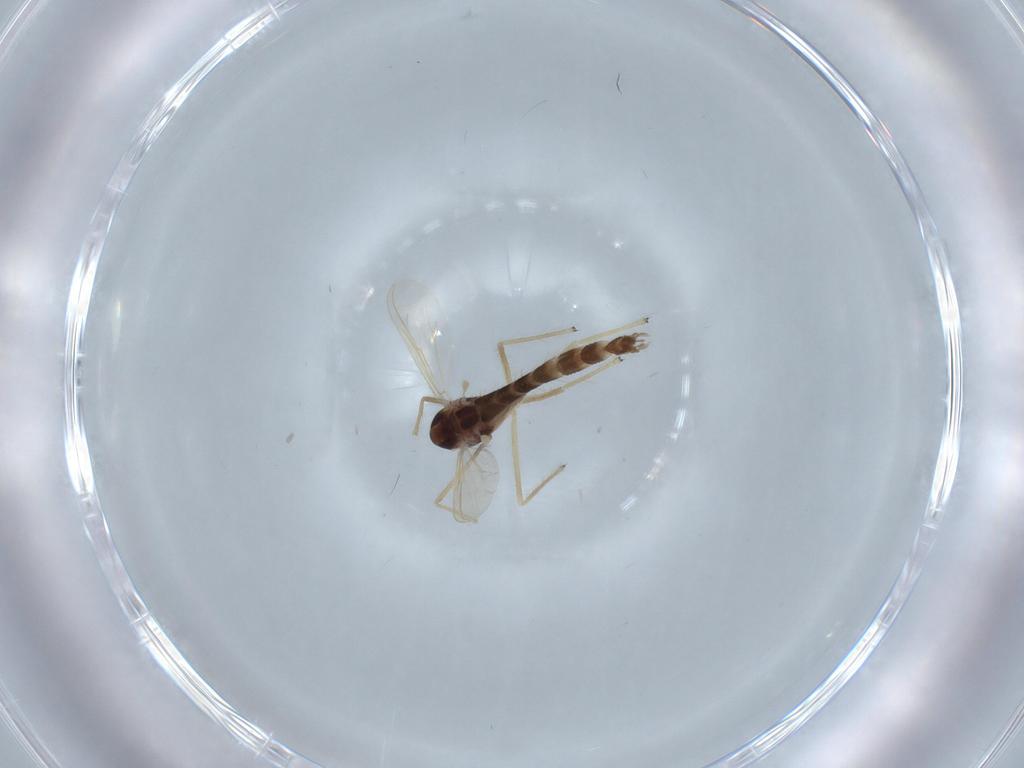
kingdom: Animalia
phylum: Arthropoda
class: Insecta
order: Diptera
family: Chironomidae
